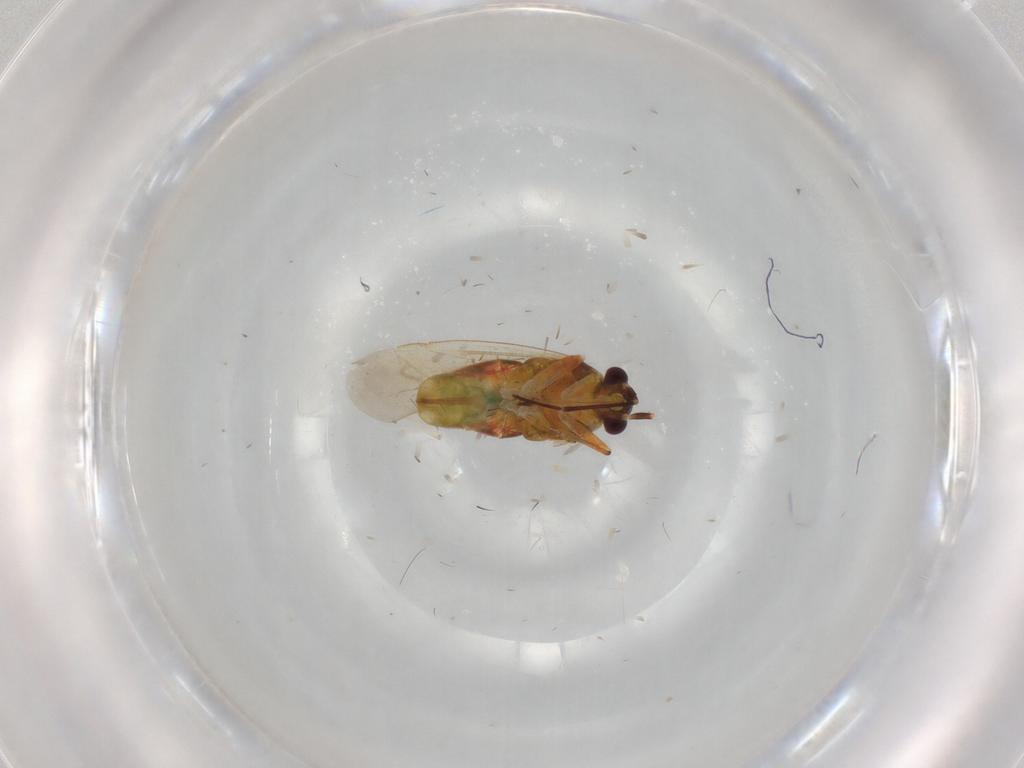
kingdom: Animalia
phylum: Arthropoda
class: Insecta
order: Hemiptera
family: Miridae
